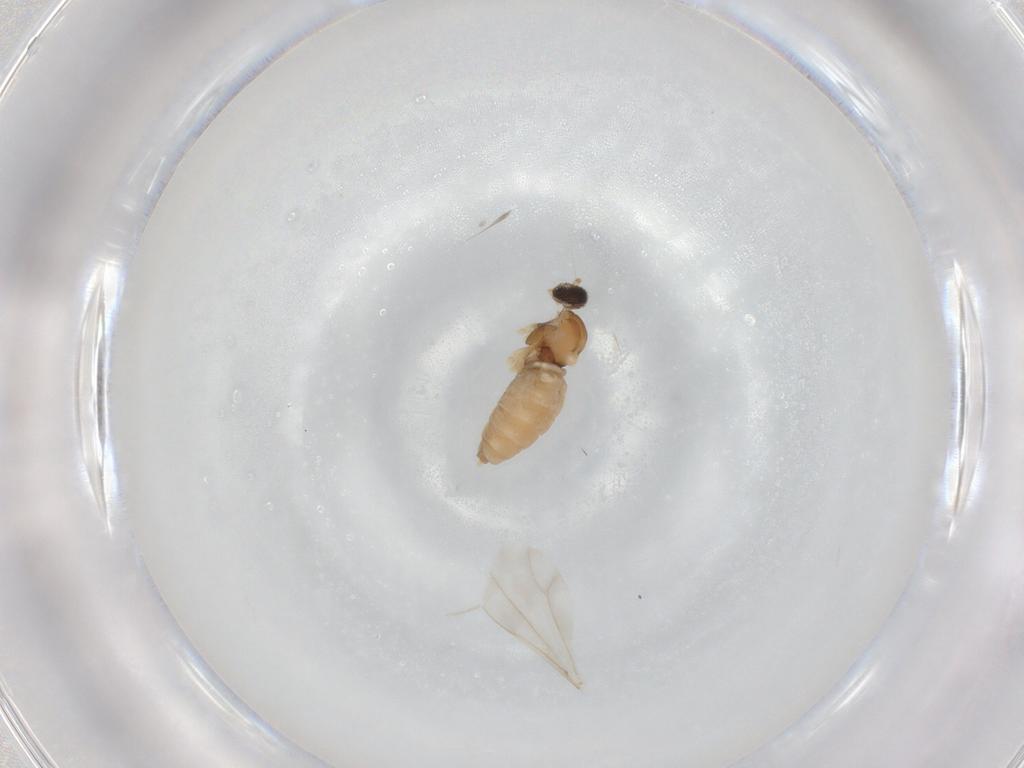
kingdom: Animalia
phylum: Arthropoda
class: Insecta
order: Diptera
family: Cecidomyiidae
